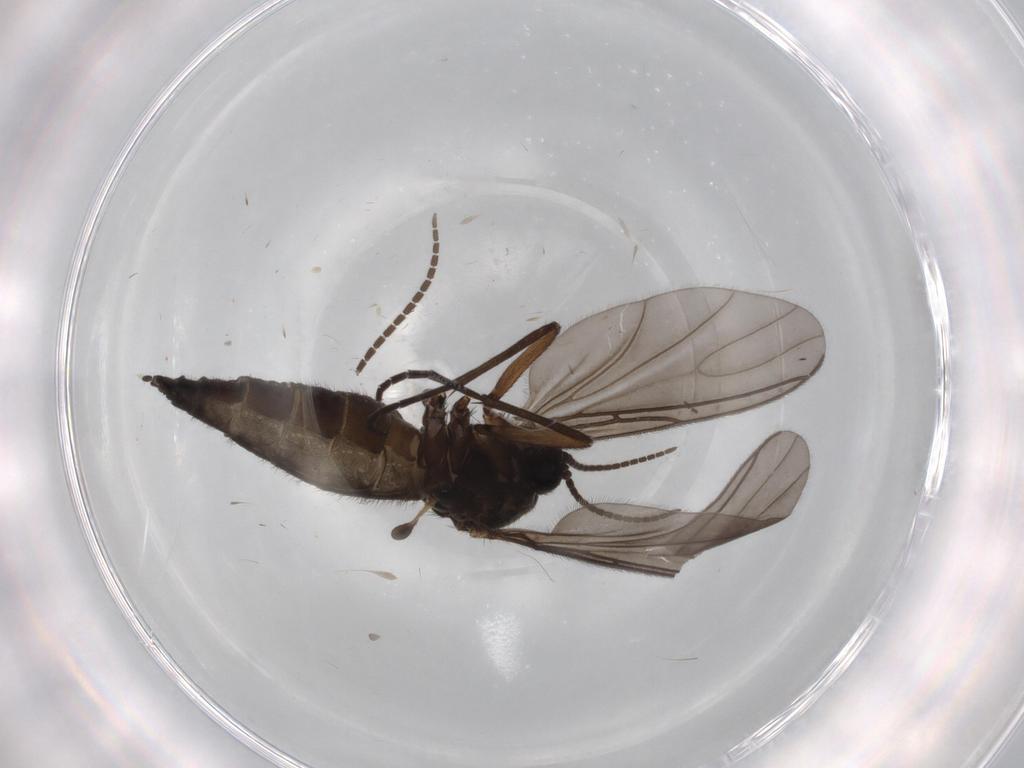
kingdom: Animalia
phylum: Arthropoda
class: Insecta
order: Diptera
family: Sciaridae
